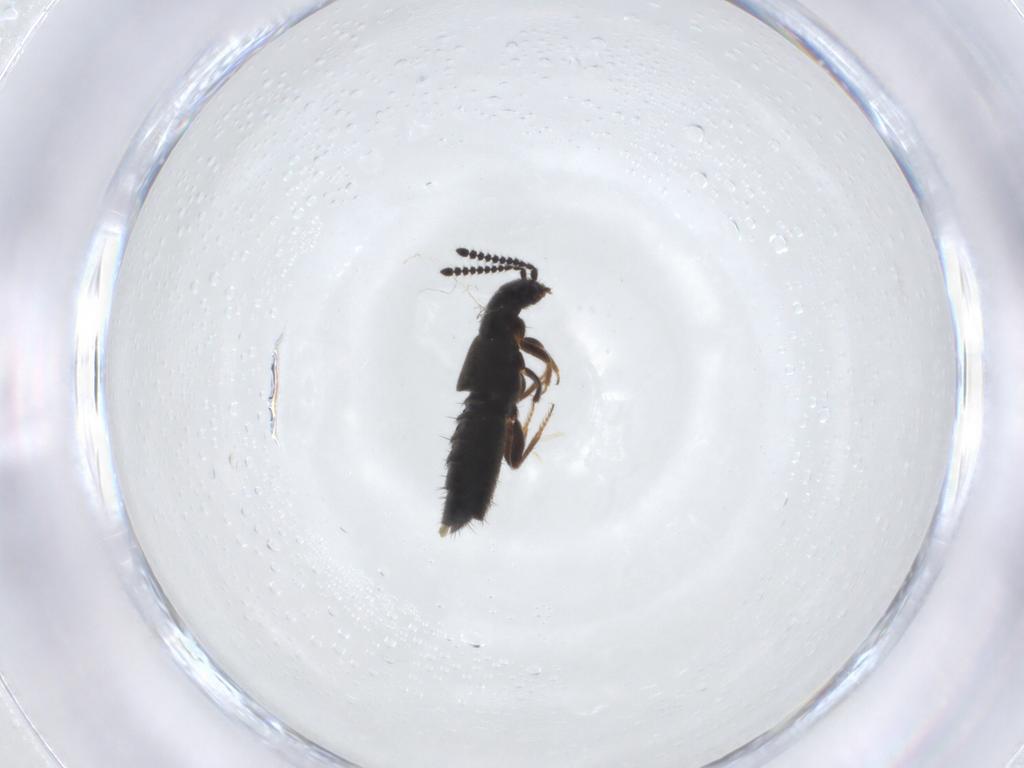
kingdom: Animalia
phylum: Arthropoda
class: Insecta
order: Coleoptera
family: Staphylinidae
